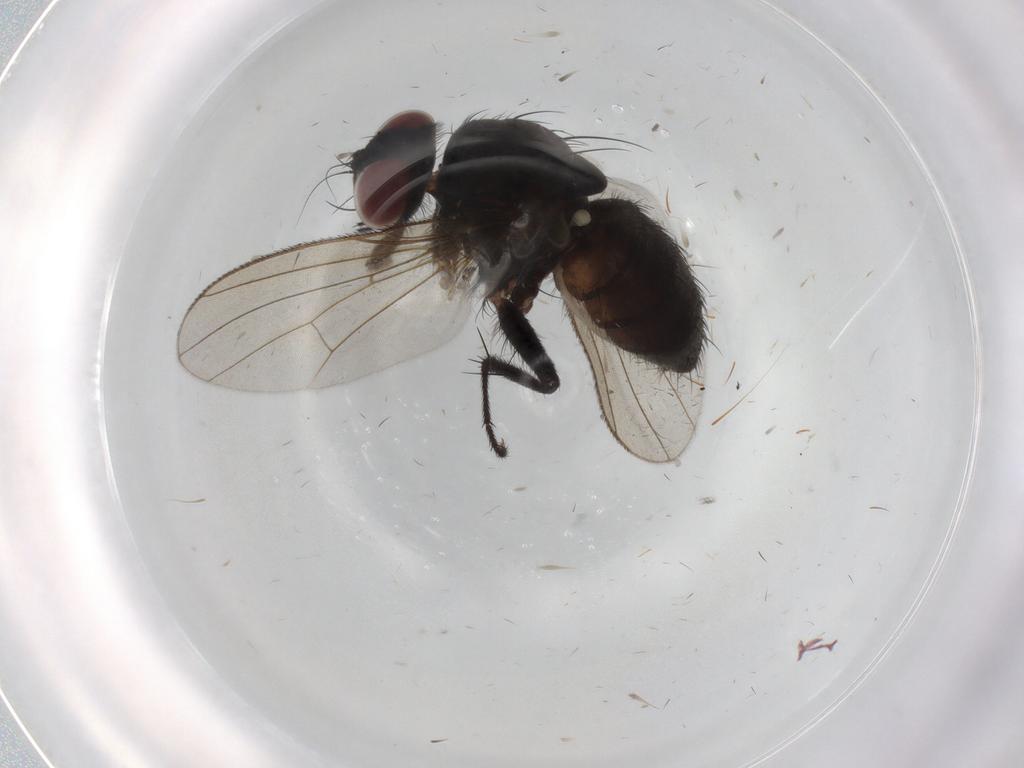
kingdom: Animalia
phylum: Arthropoda
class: Insecta
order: Diptera
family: Muscidae
